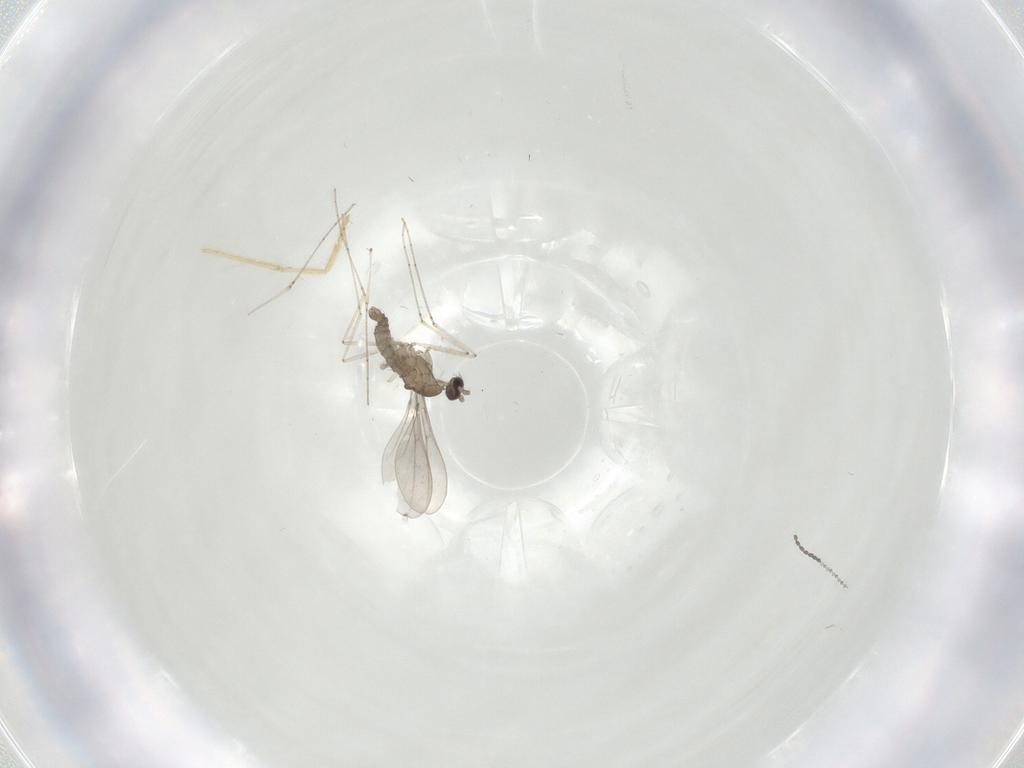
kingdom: Animalia
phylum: Arthropoda
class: Insecta
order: Diptera
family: Cecidomyiidae
